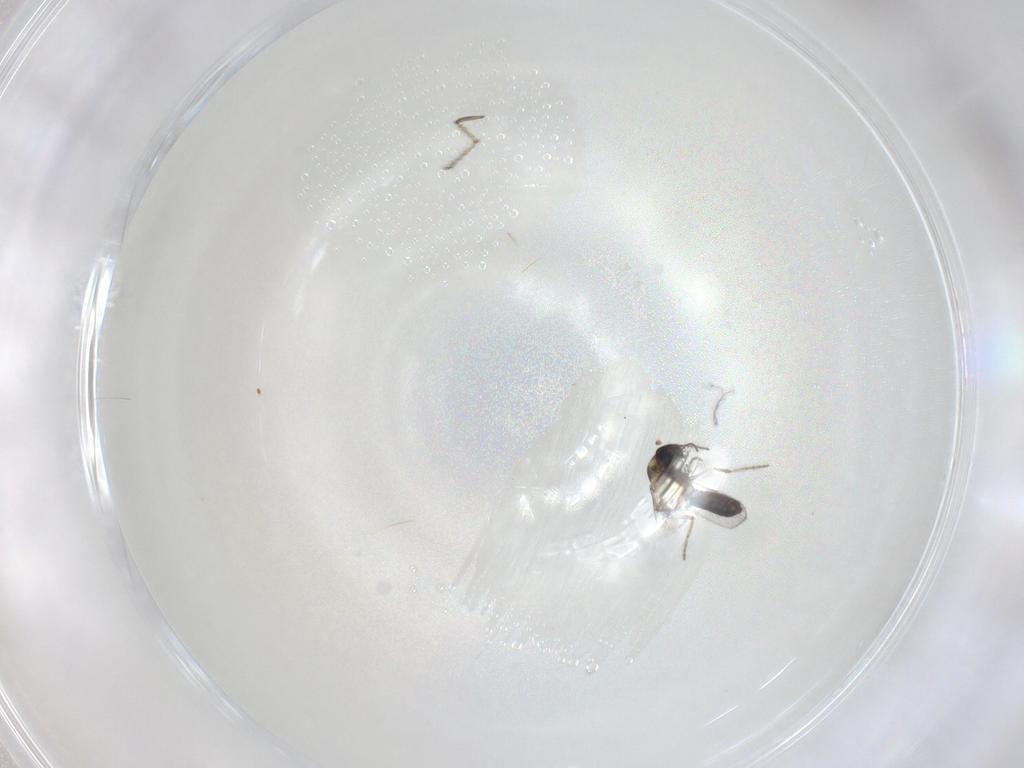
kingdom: Animalia
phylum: Arthropoda
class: Insecta
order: Diptera
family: Ceratopogonidae
